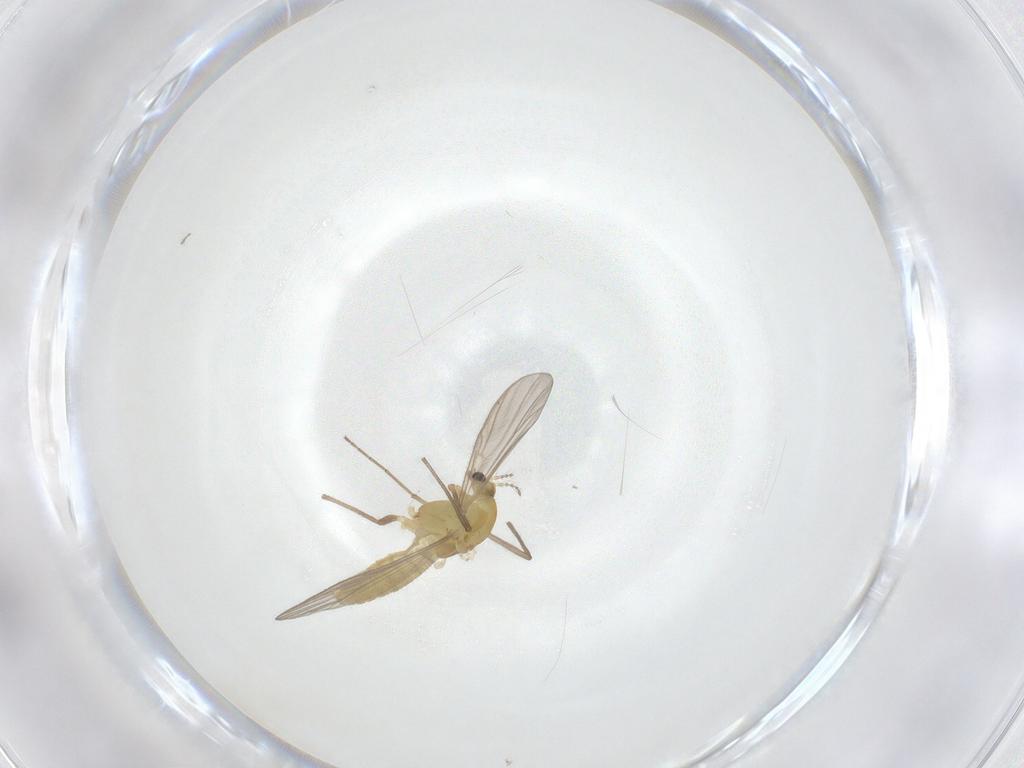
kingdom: Animalia
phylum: Arthropoda
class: Insecta
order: Diptera
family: Chironomidae
